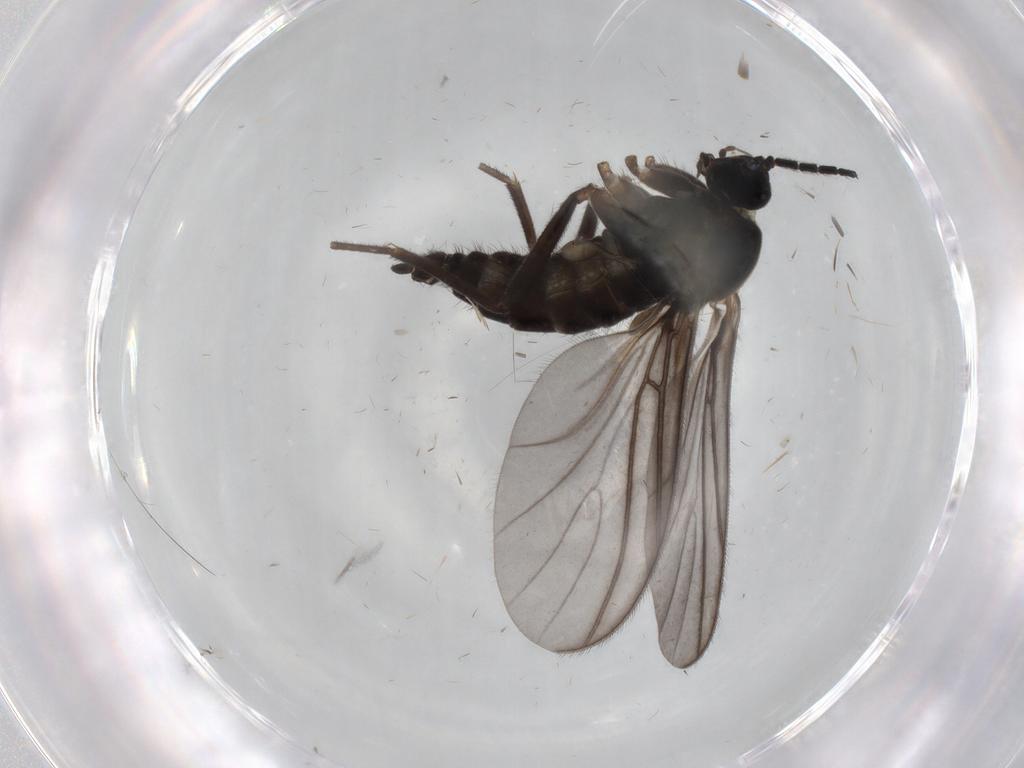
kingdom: Animalia
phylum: Arthropoda
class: Insecta
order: Diptera
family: Sciaridae
